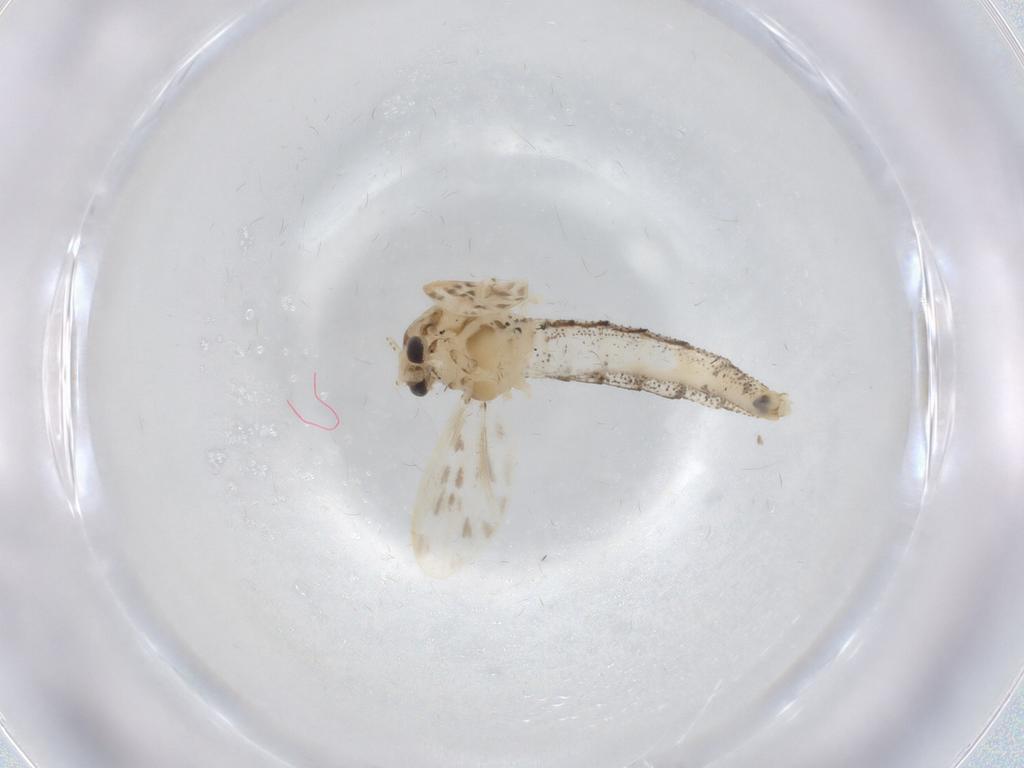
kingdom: Animalia
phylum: Arthropoda
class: Insecta
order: Diptera
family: Chaoboridae
